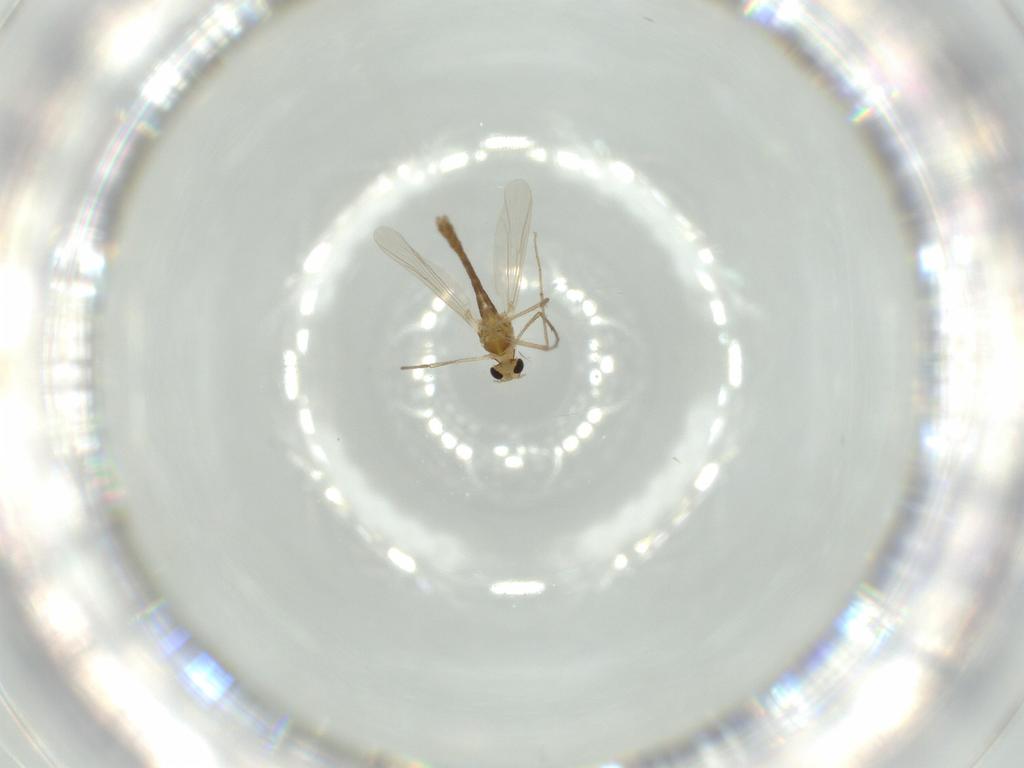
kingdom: Animalia
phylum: Arthropoda
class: Insecta
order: Diptera
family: Chironomidae
